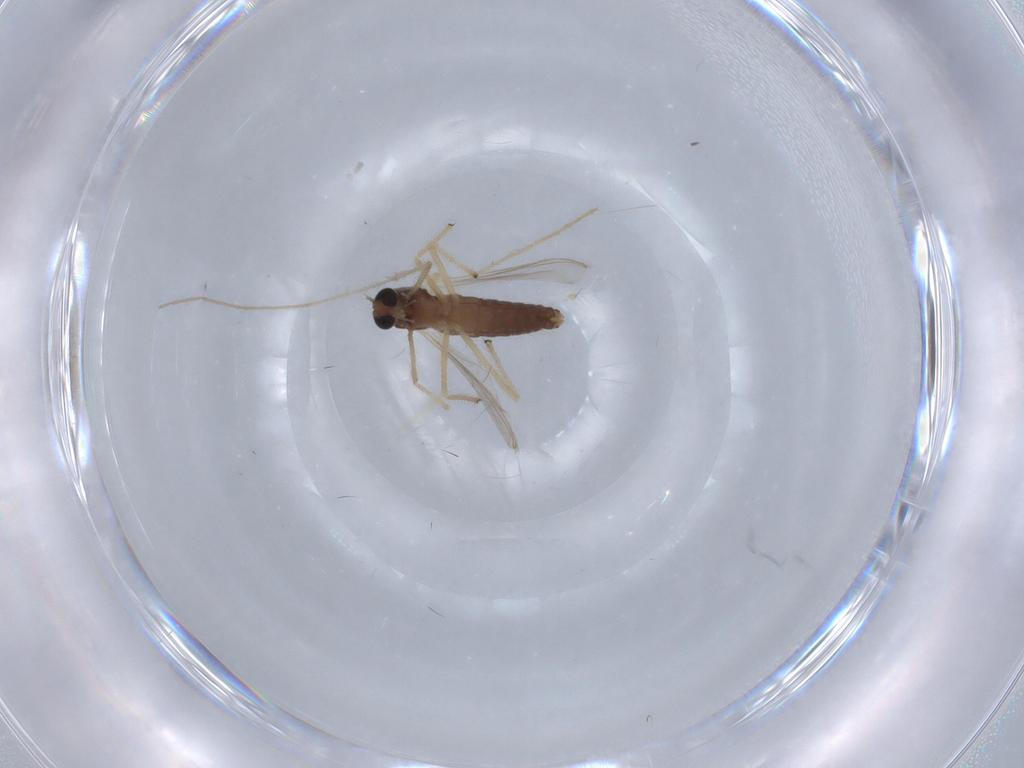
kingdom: Animalia
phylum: Arthropoda
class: Insecta
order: Diptera
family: Chironomidae
